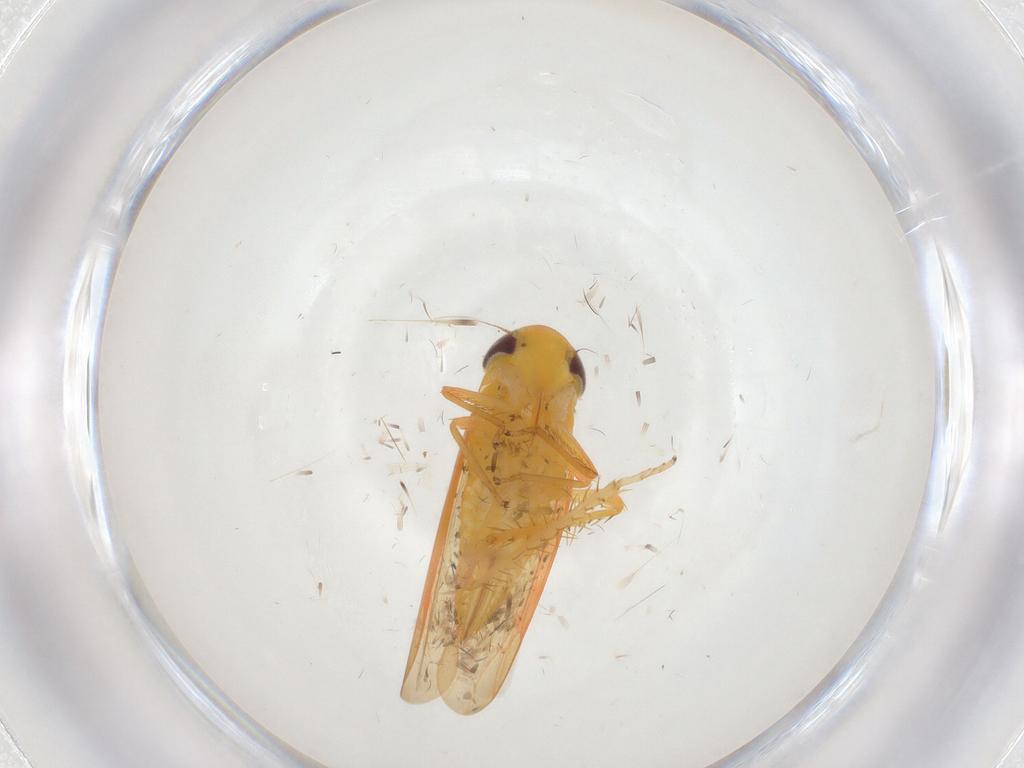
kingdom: Animalia
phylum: Arthropoda
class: Insecta
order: Hemiptera
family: Cicadellidae
